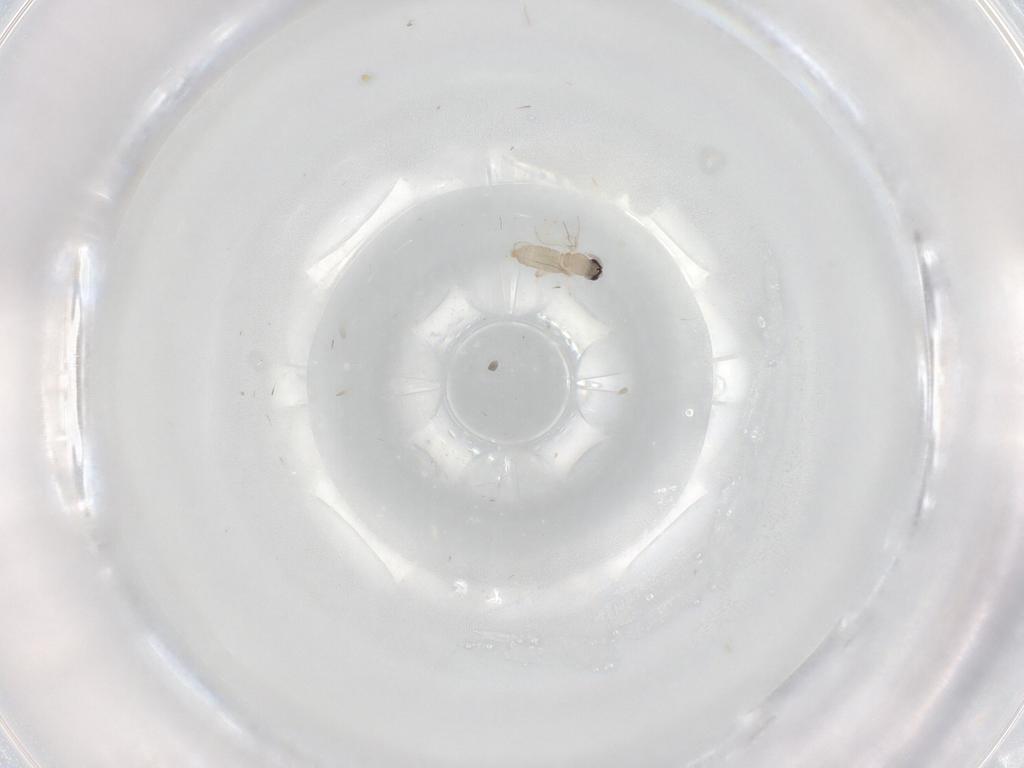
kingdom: Animalia
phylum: Arthropoda
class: Insecta
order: Diptera
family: Cecidomyiidae
